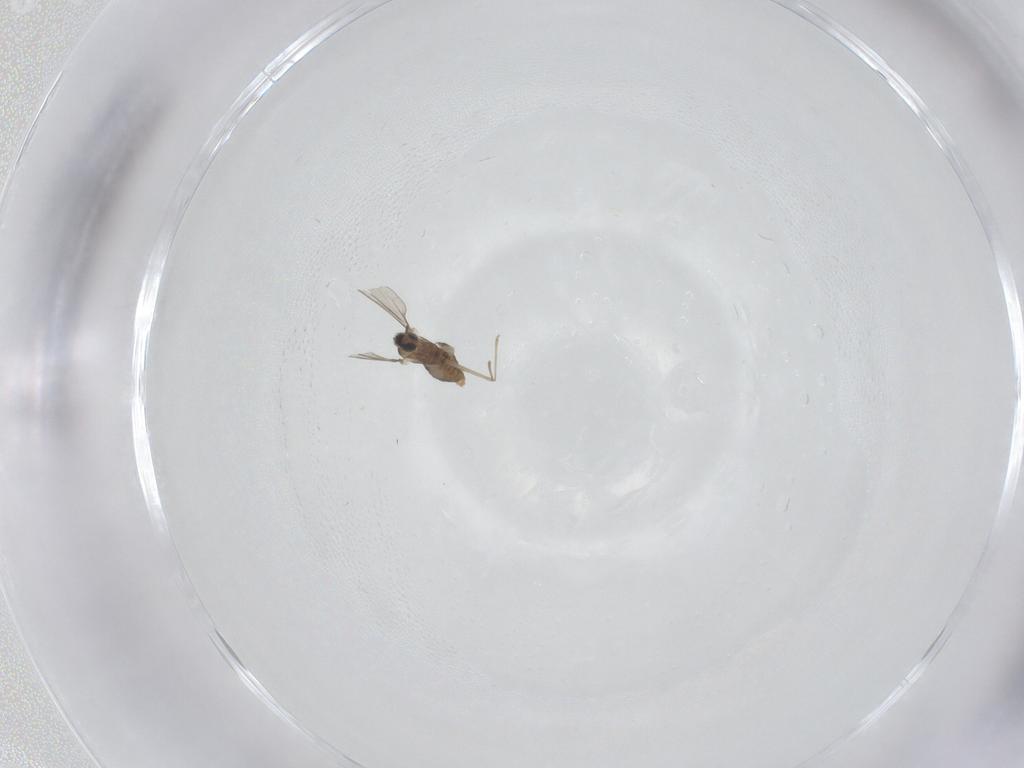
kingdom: Animalia
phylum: Arthropoda
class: Insecta
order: Diptera
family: Cecidomyiidae
